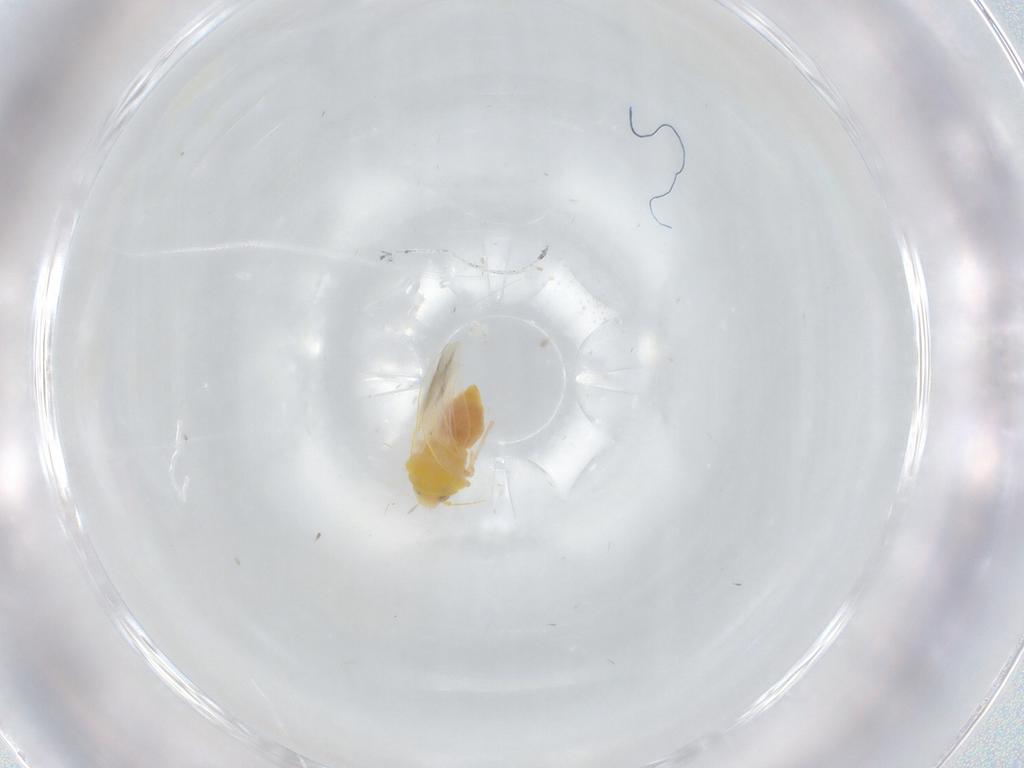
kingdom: Animalia
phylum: Arthropoda
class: Insecta
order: Hemiptera
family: Aleyrodidae
